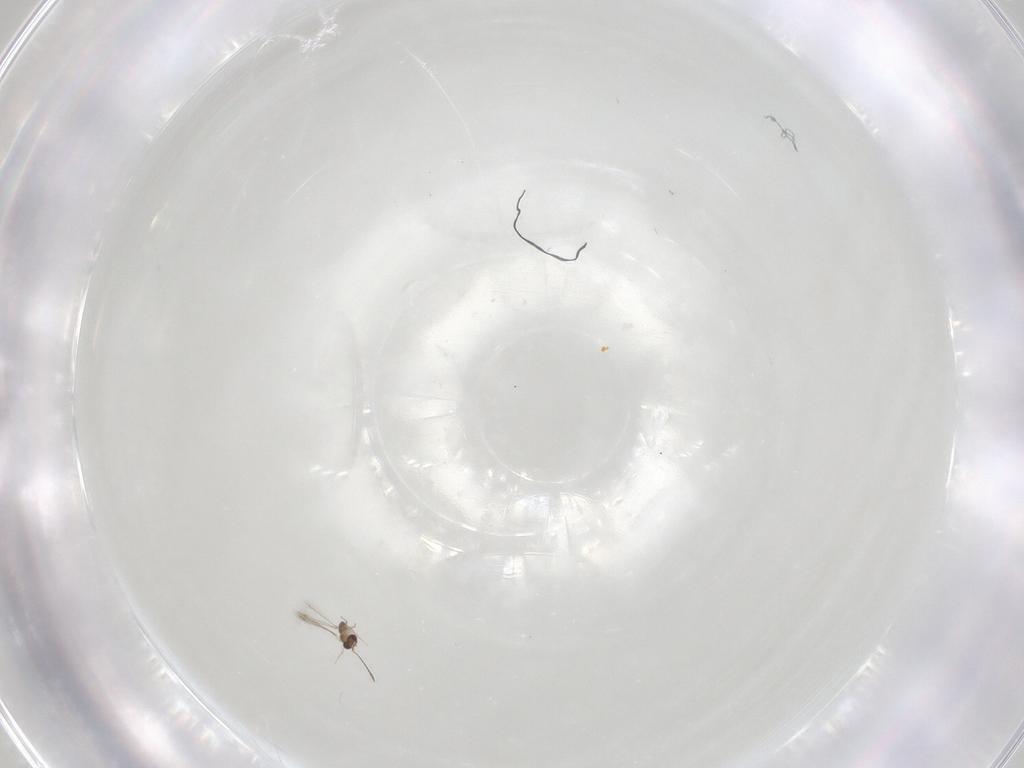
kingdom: Animalia
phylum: Arthropoda
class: Insecta
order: Hymenoptera
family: Mymaridae
